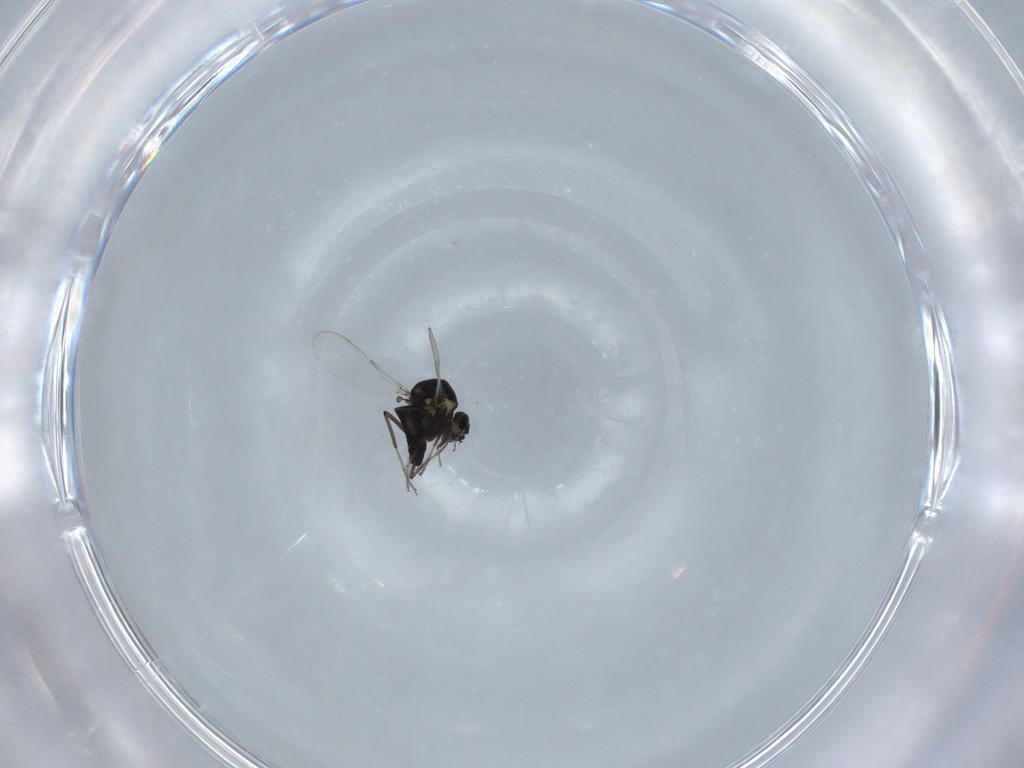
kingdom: Animalia
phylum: Arthropoda
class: Insecta
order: Diptera
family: Ceratopogonidae
